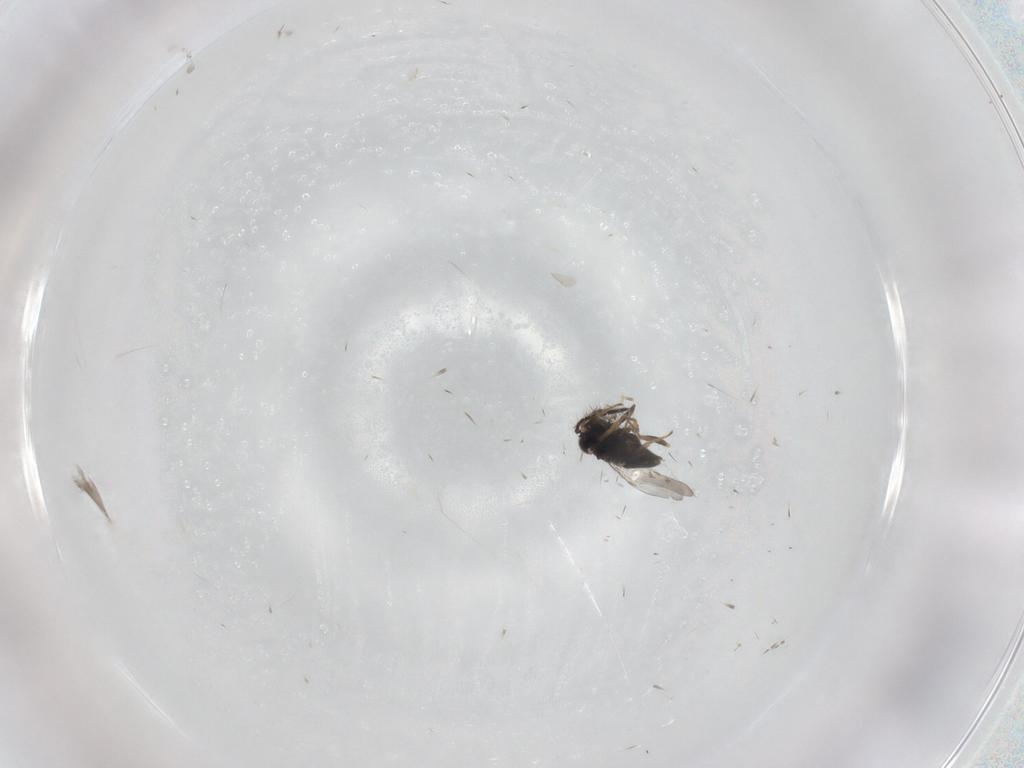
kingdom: Animalia
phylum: Arthropoda
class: Insecta
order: Hymenoptera
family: Encyrtidae
